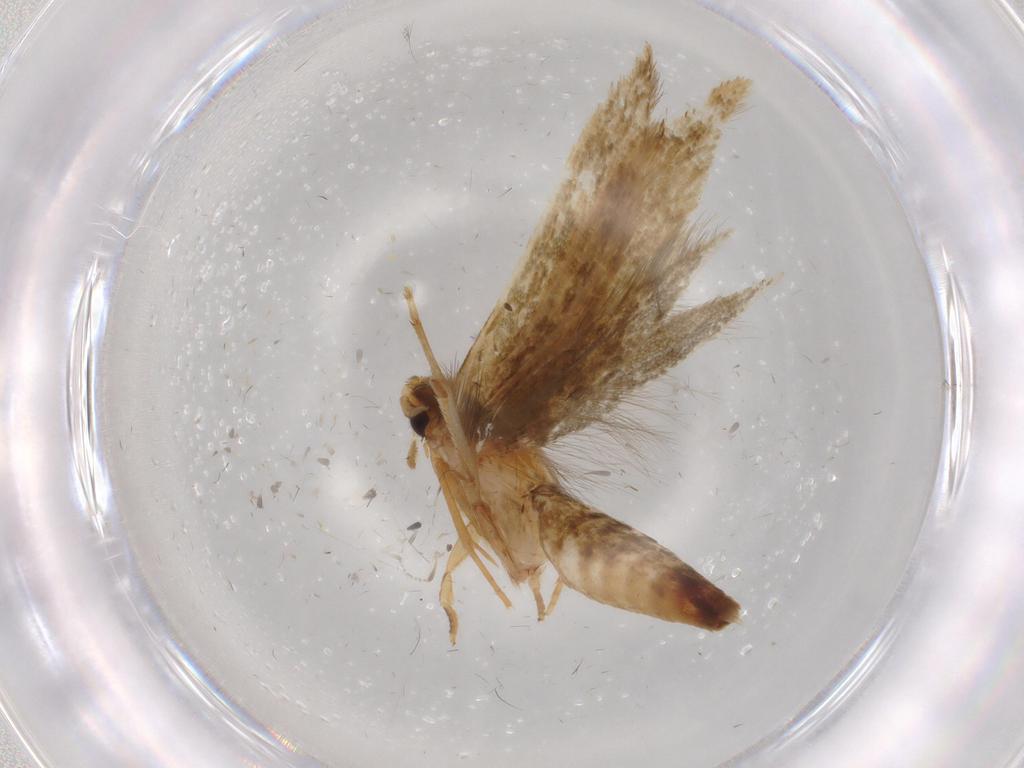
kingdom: Animalia
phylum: Arthropoda
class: Insecta
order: Lepidoptera
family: Tineidae
